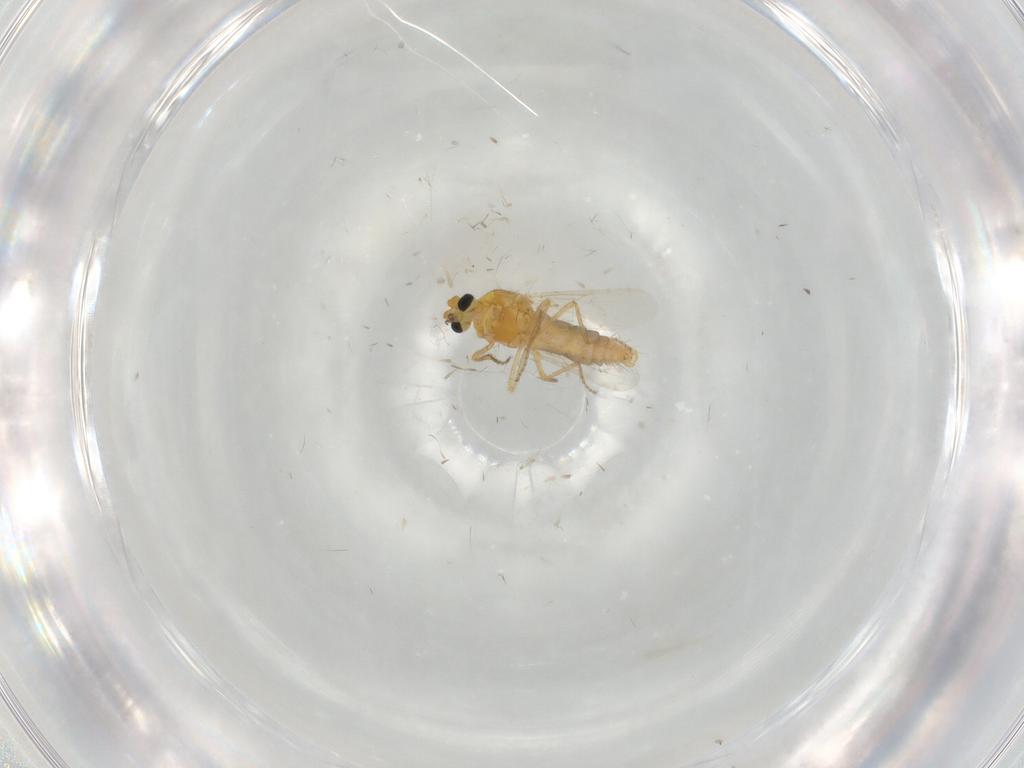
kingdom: Animalia
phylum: Arthropoda
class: Insecta
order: Diptera
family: Ceratopogonidae
